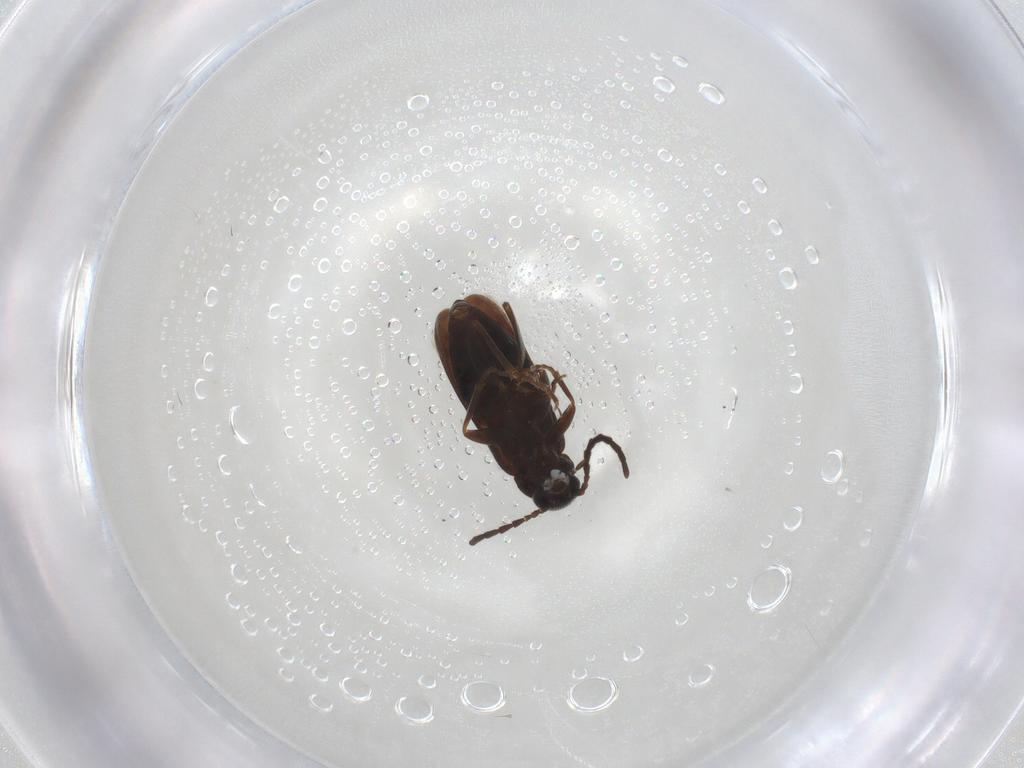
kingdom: Animalia
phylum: Arthropoda
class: Insecta
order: Coleoptera
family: Scraptiidae
